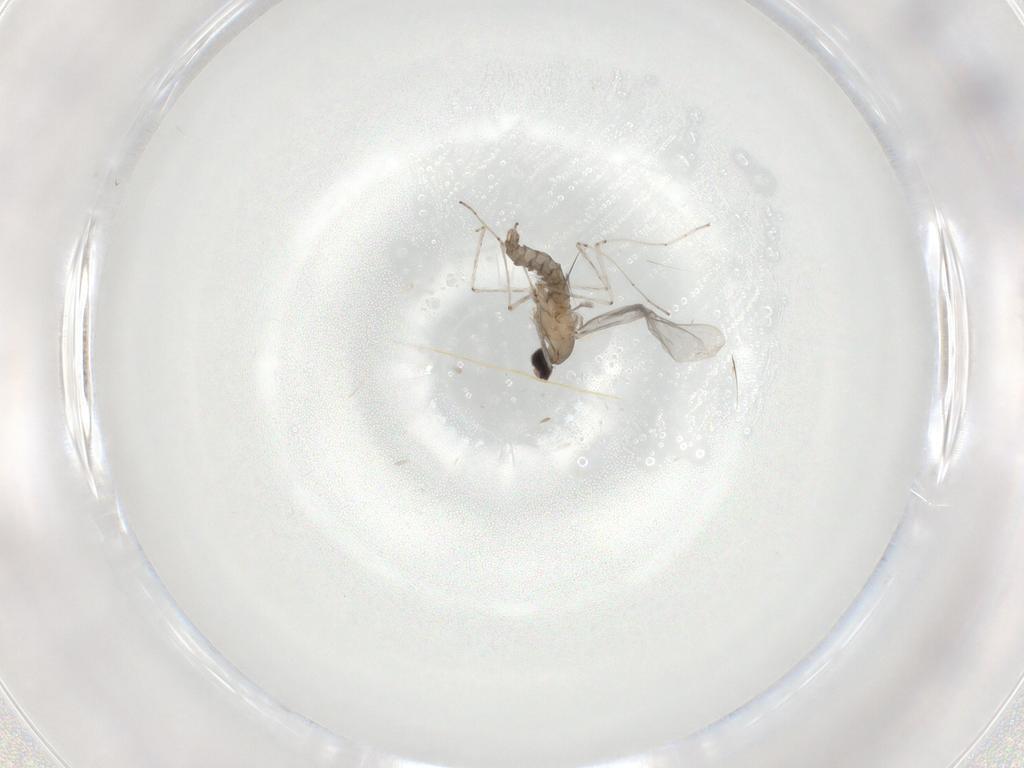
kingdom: Animalia
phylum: Arthropoda
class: Insecta
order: Diptera
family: Cecidomyiidae
